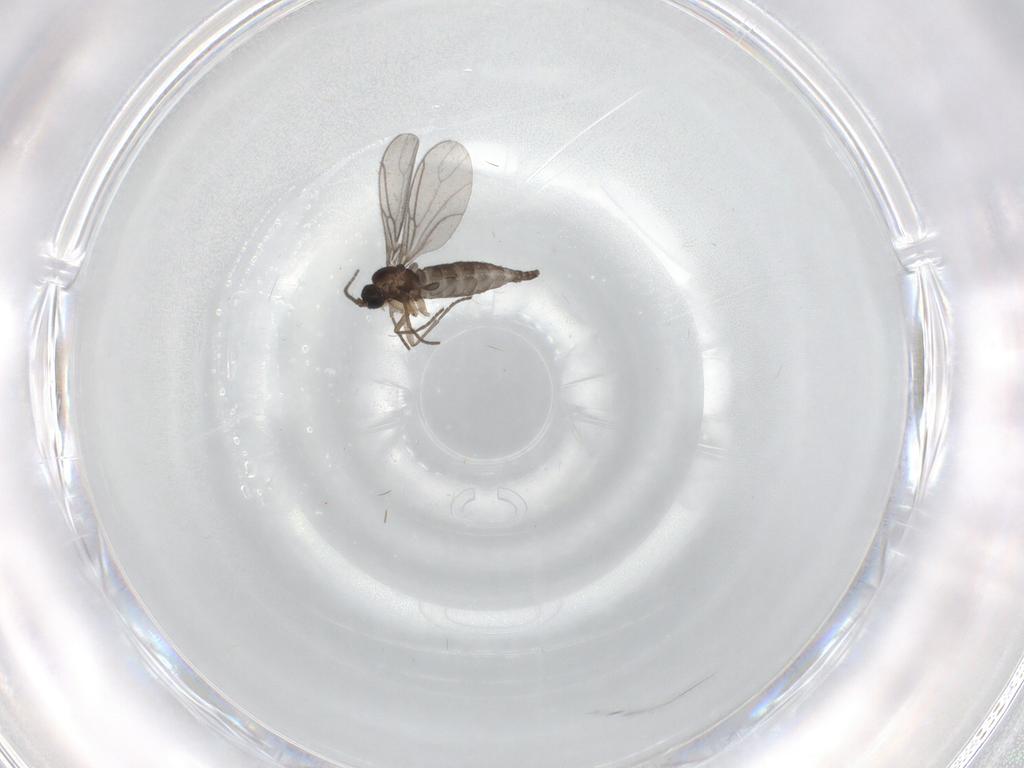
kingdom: Animalia
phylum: Arthropoda
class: Insecta
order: Diptera
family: Sciaridae
